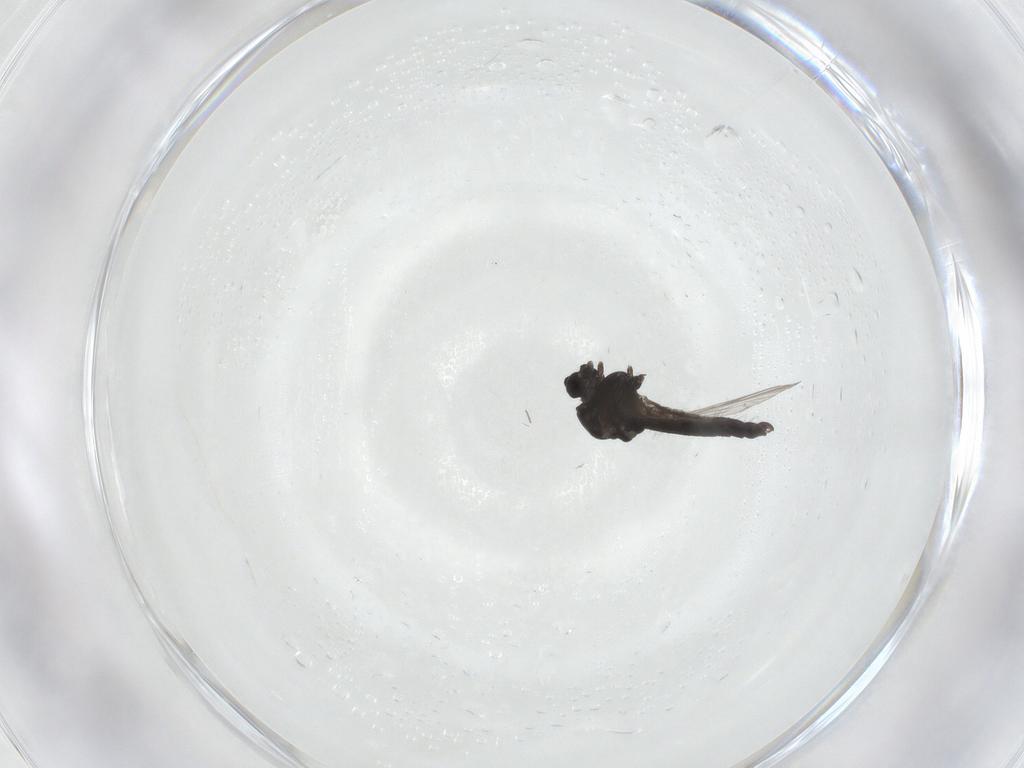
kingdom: Animalia
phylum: Arthropoda
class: Insecta
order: Diptera
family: Chironomidae
